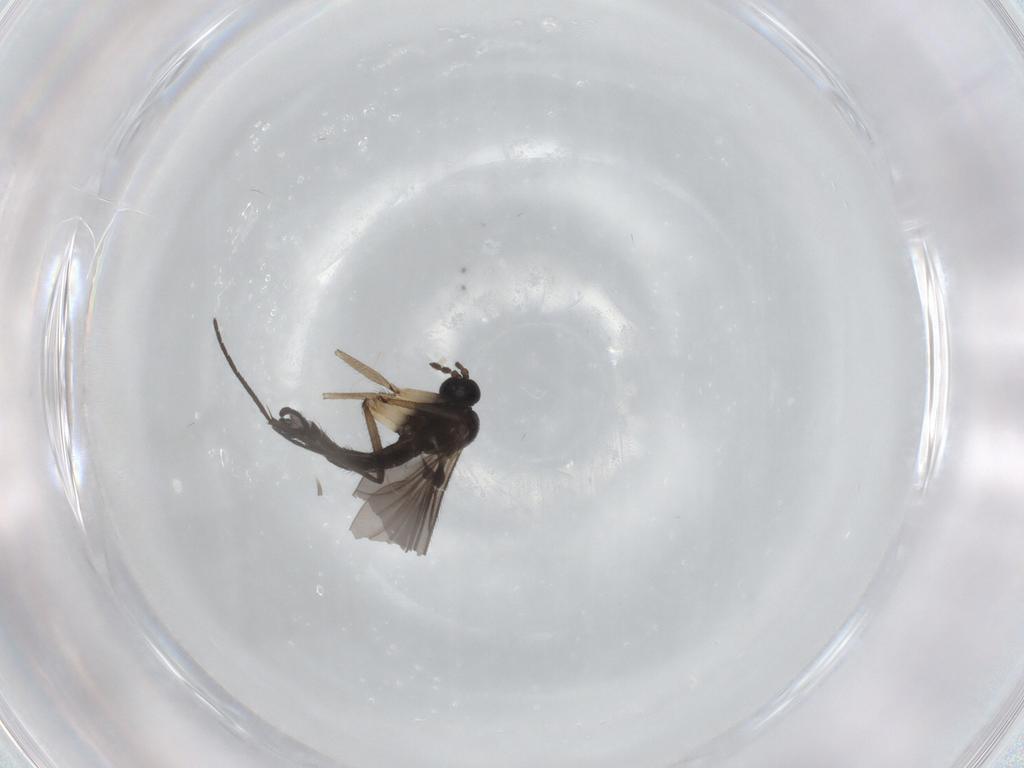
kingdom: Animalia
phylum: Arthropoda
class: Insecta
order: Diptera
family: Sciaridae
